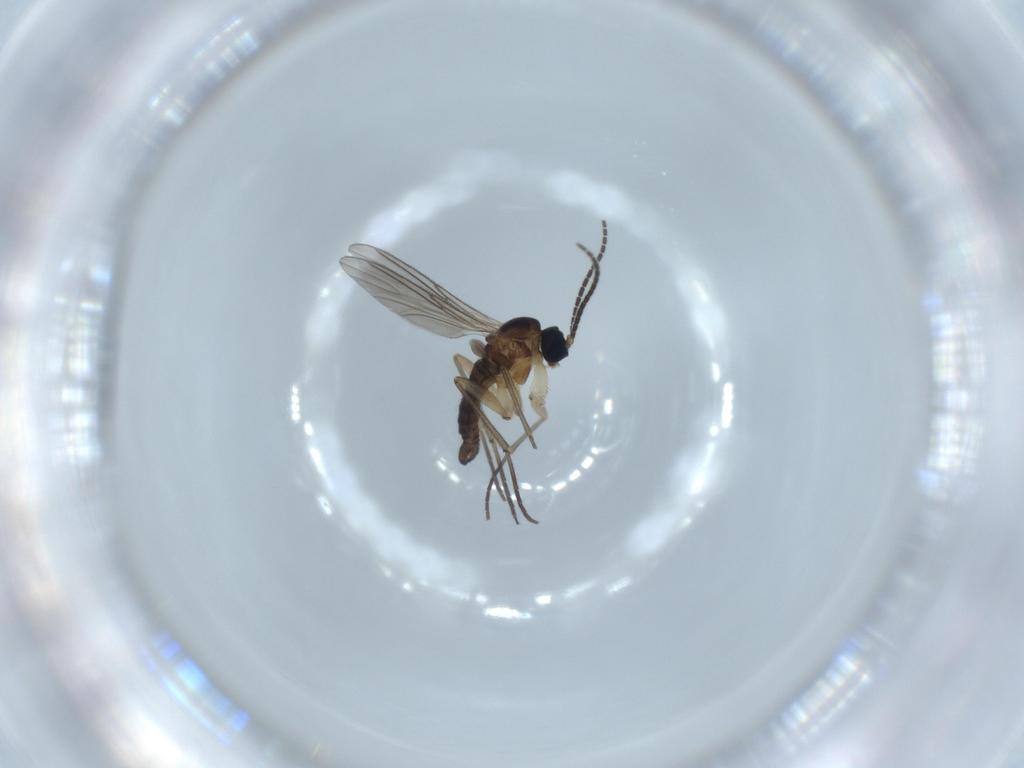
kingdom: Animalia
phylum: Arthropoda
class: Insecta
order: Diptera
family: Sciaridae
